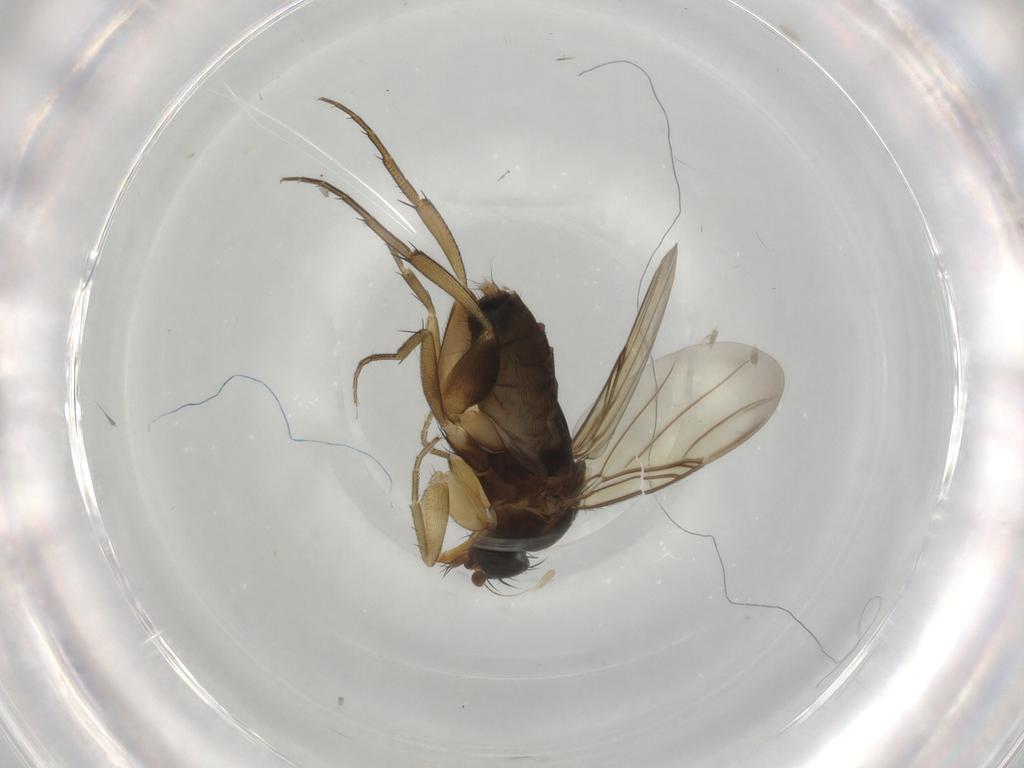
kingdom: Animalia
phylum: Arthropoda
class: Insecta
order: Diptera
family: Phoridae
